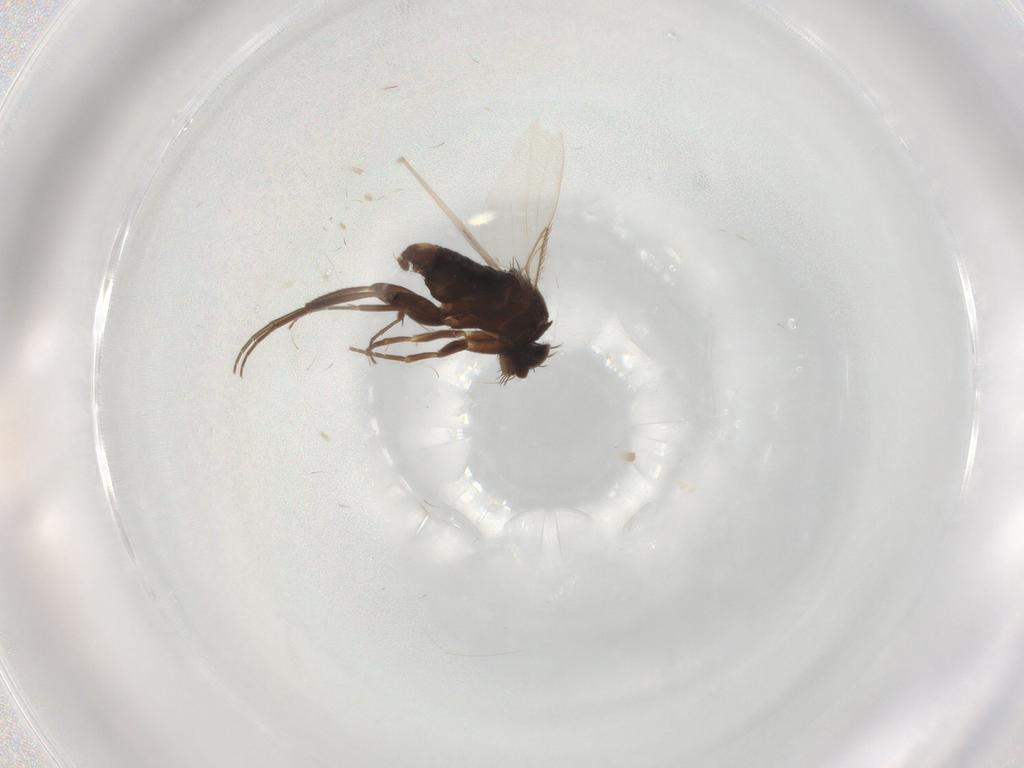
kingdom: Animalia
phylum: Arthropoda
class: Insecta
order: Diptera
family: Phoridae
